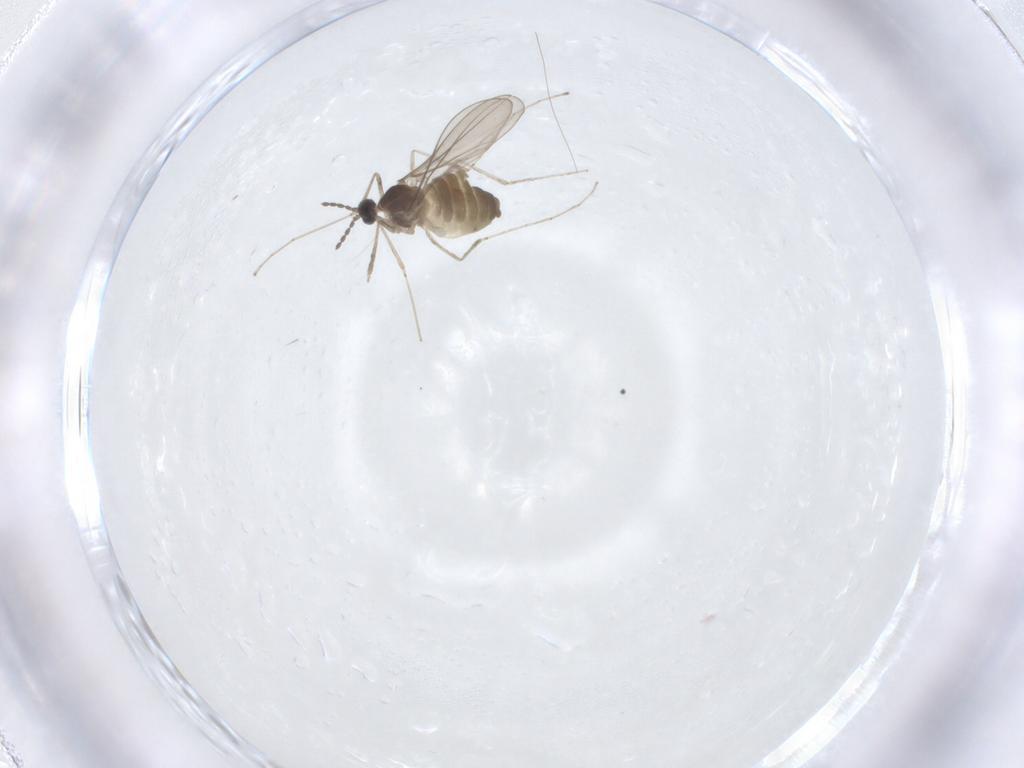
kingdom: Animalia
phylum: Arthropoda
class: Insecta
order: Diptera
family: Cecidomyiidae
